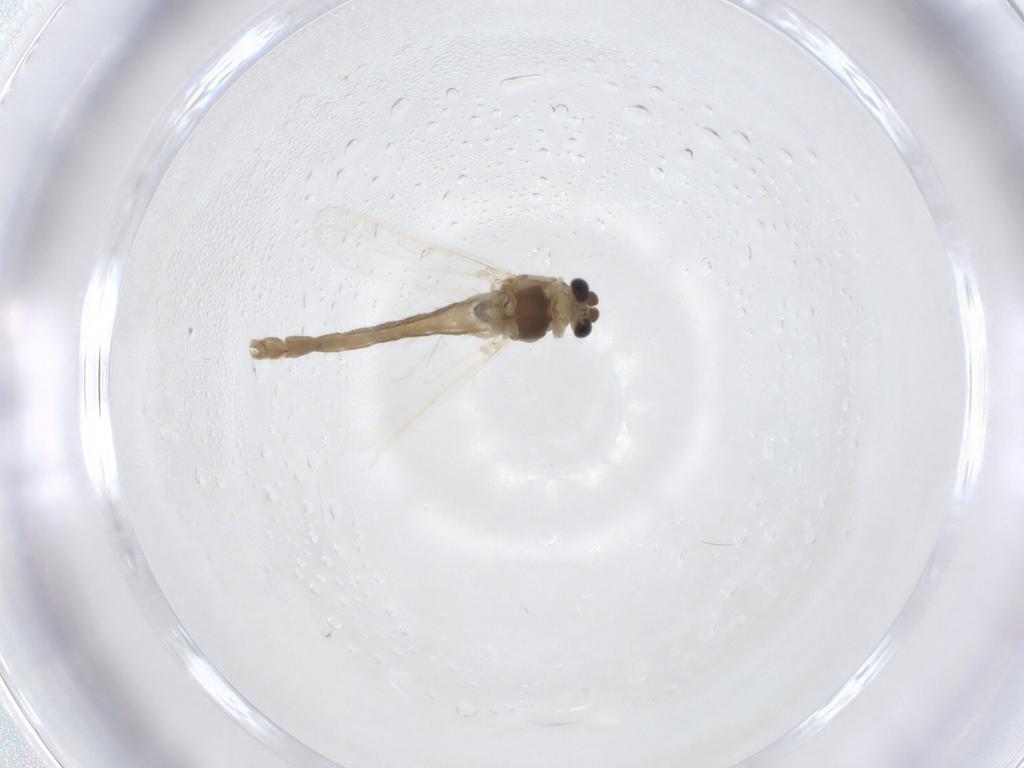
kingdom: Animalia
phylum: Arthropoda
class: Insecta
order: Diptera
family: Chironomidae
